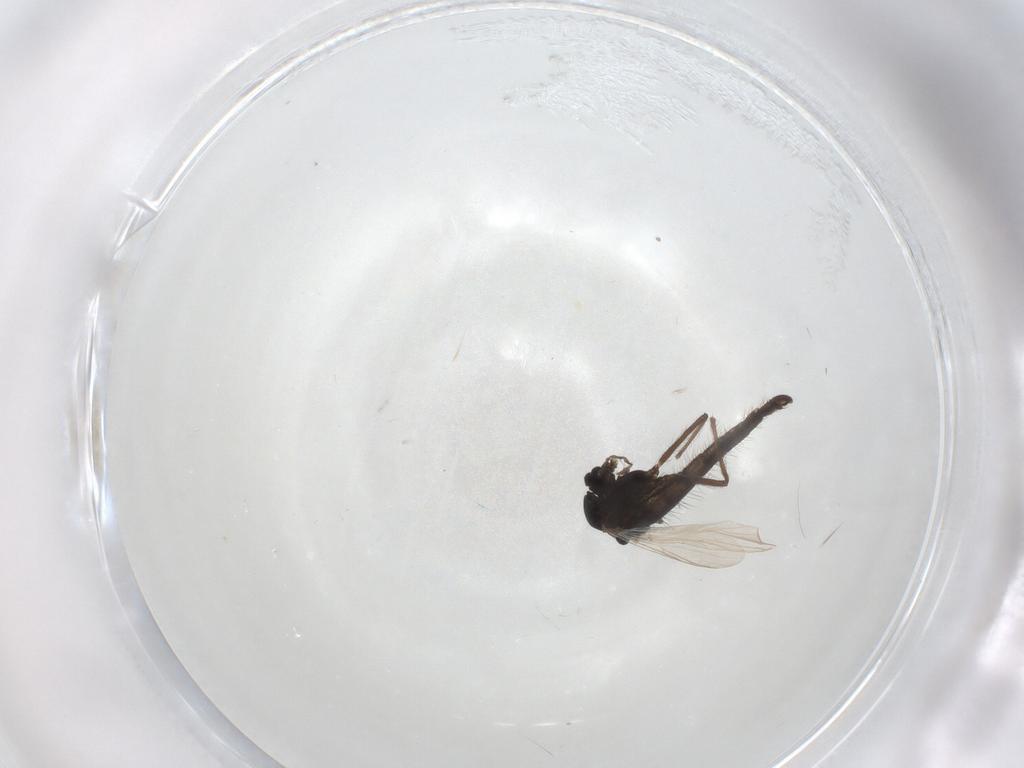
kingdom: Animalia
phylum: Arthropoda
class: Insecta
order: Diptera
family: Chironomidae
